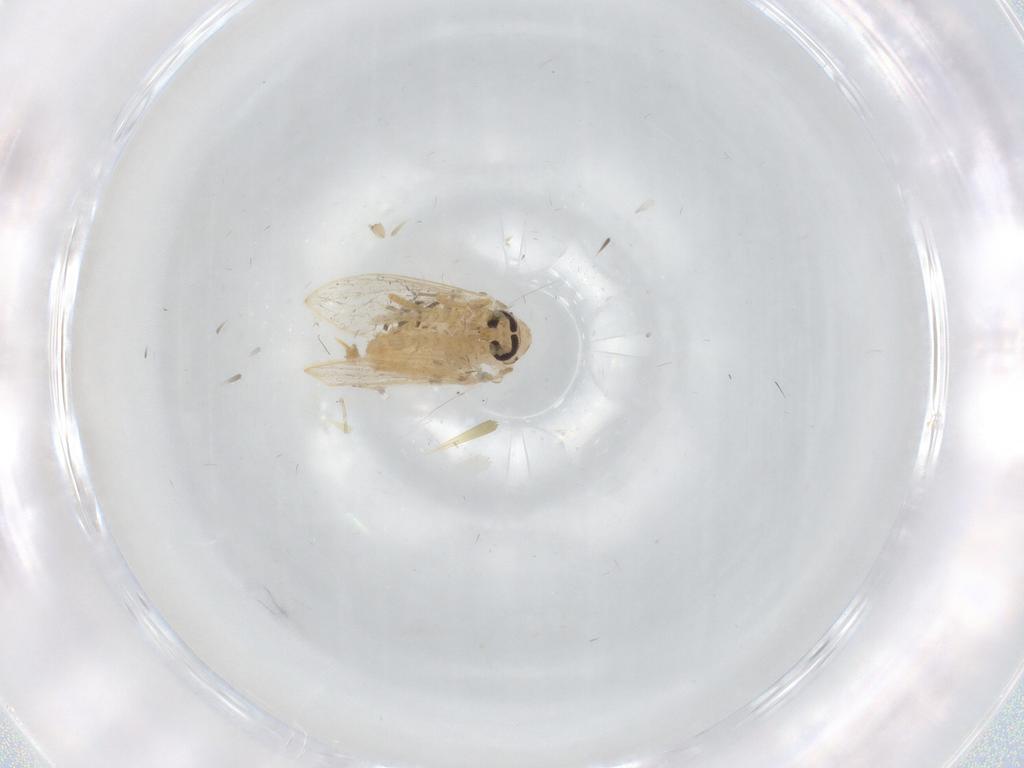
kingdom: Animalia
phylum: Arthropoda
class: Insecta
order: Diptera
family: Psychodidae
